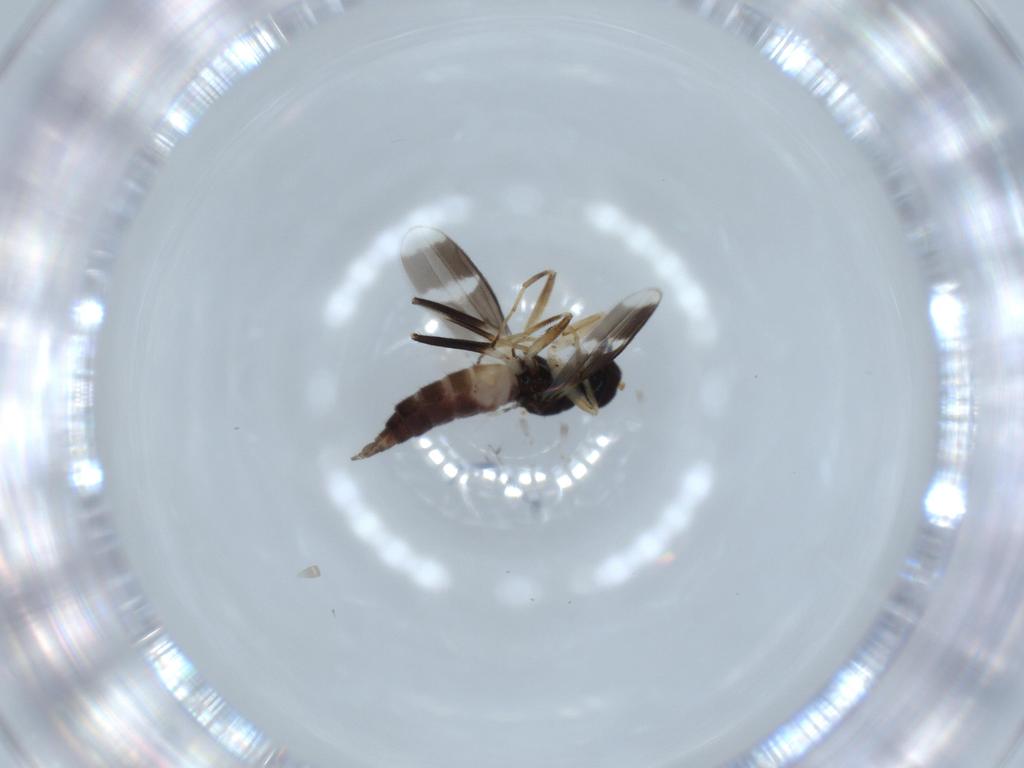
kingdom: Animalia
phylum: Arthropoda
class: Insecta
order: Diptera
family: Hybotidae
